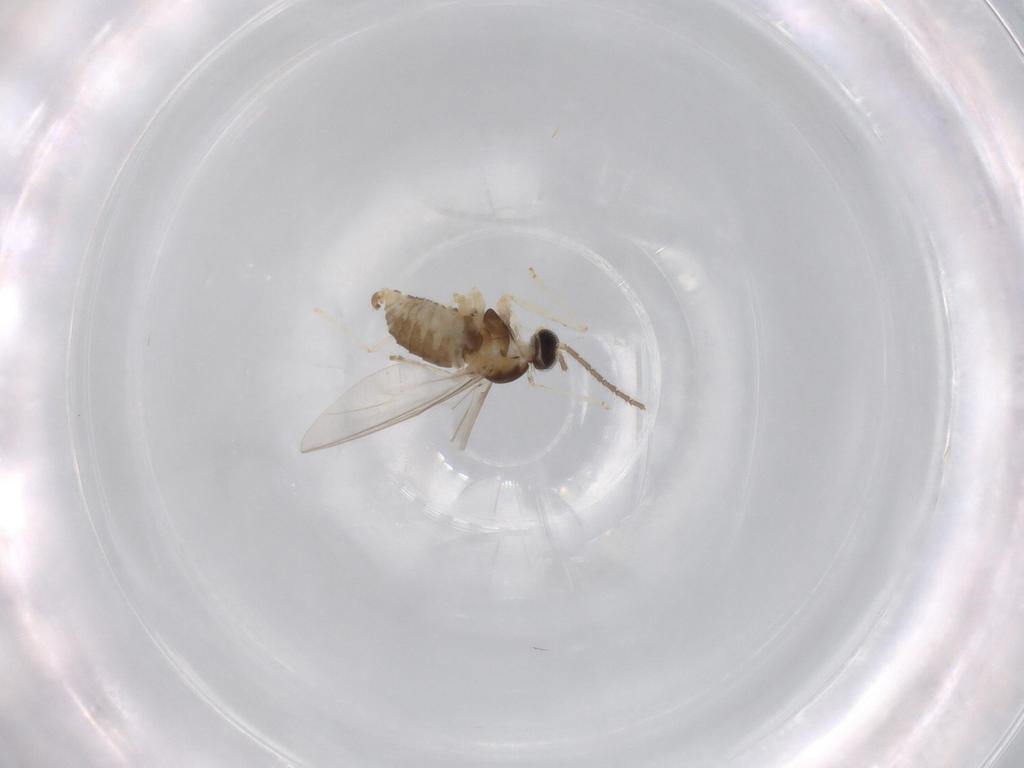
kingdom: Animalia
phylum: Arthropoda
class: Insecta
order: Diptera
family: Cecidomyiidae
